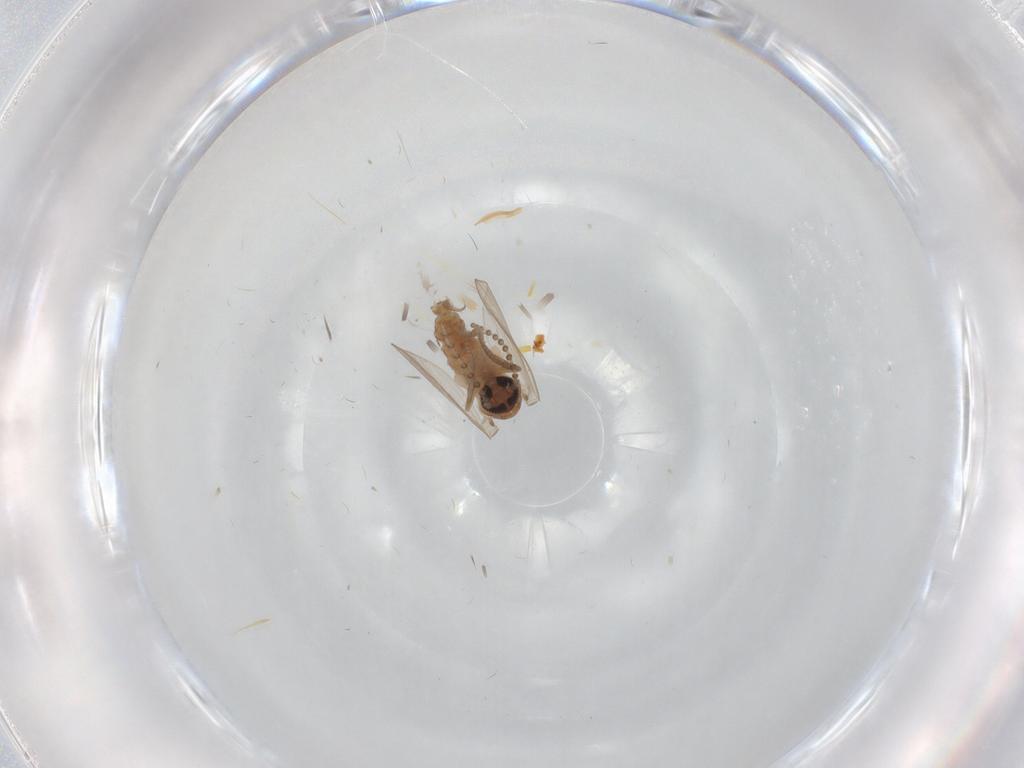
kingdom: Animalia
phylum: Arthropoda
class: Insecta
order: Diptera
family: Psychodidae
